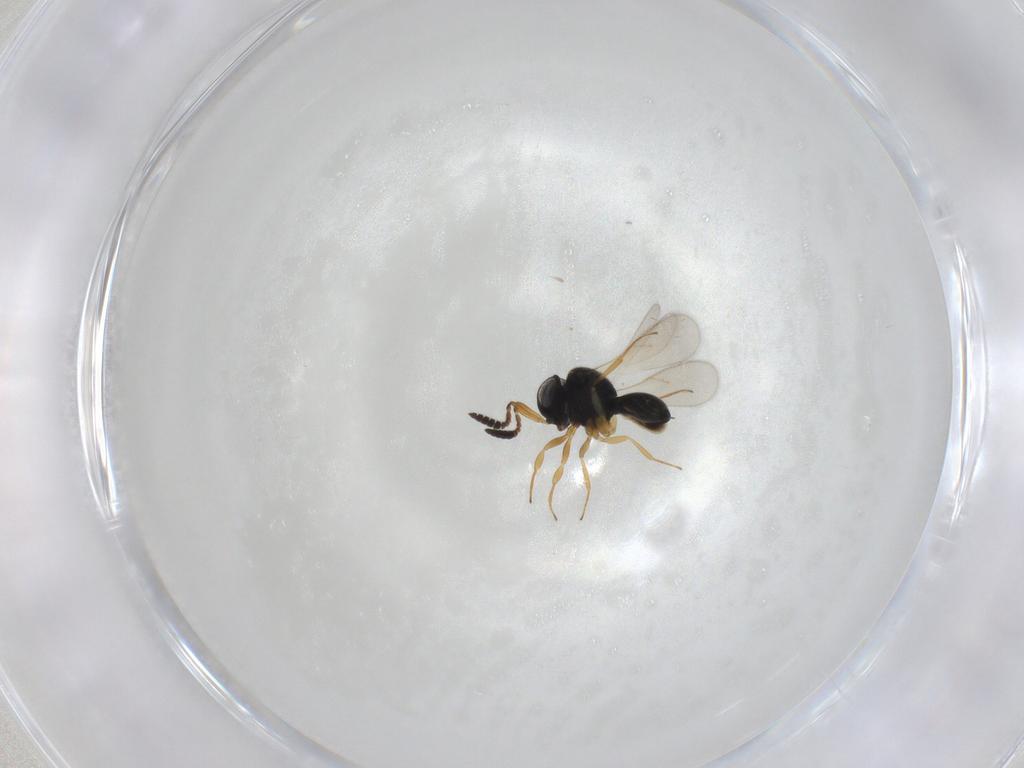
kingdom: Animalia
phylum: Arthropoda
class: Insecta
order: Hymenoptera
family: Scelionidae
